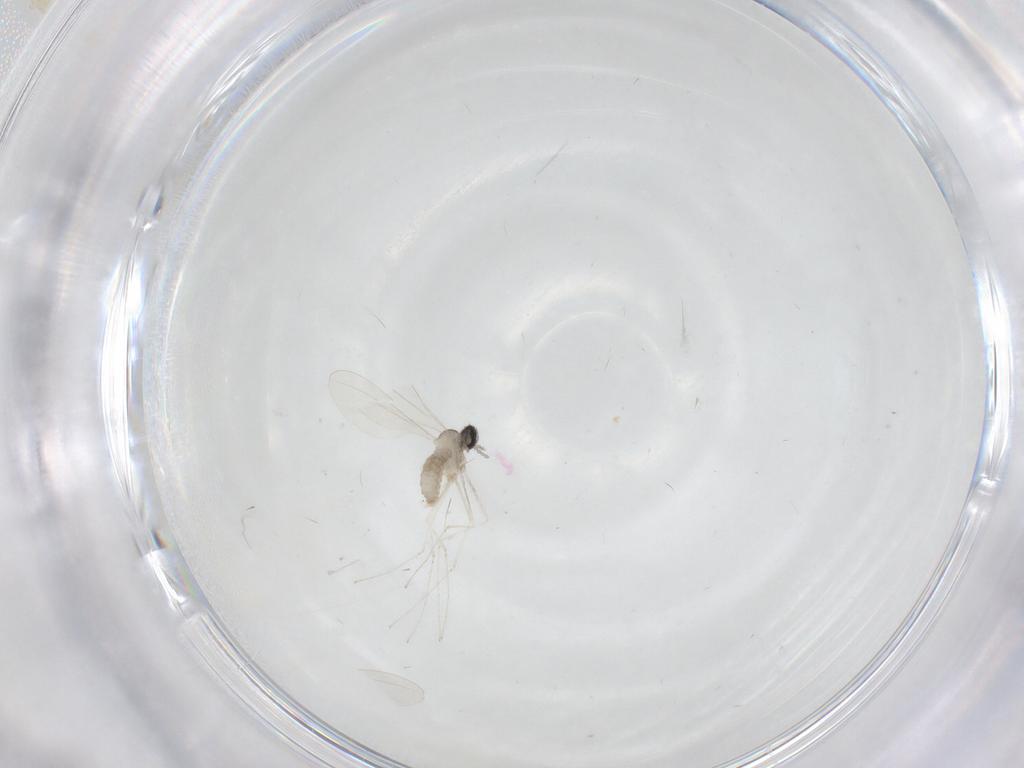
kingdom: Animalia
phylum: Arthropoda
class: Insecta
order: Diptera
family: Cecidomyiidae
